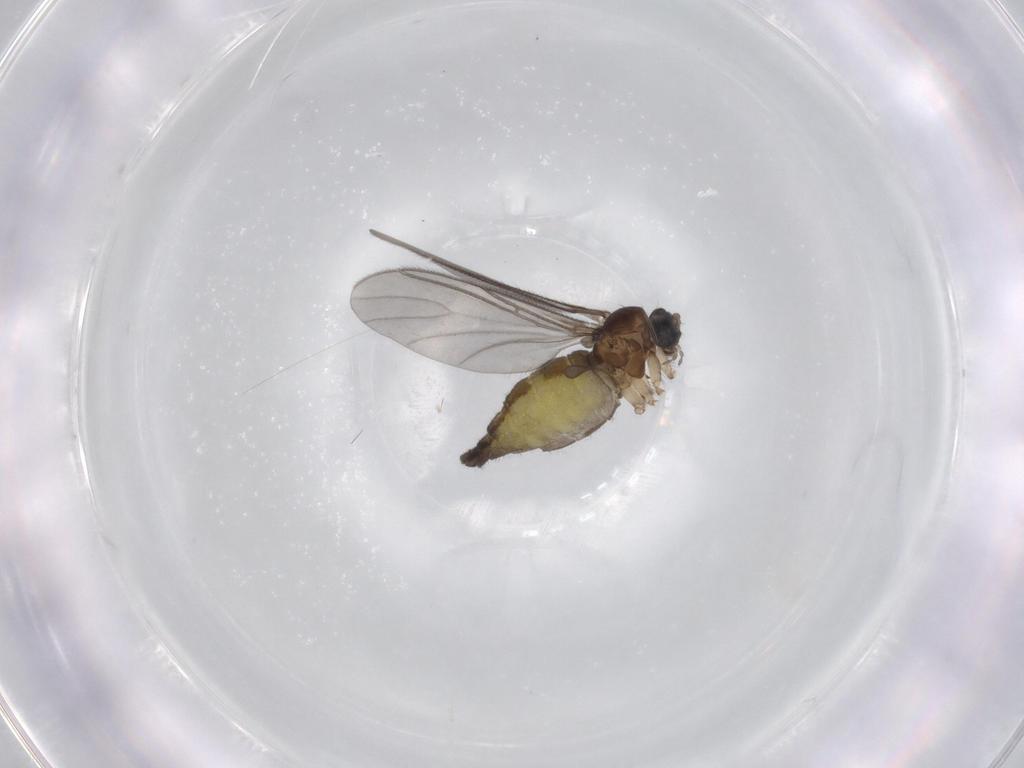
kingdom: Animalia
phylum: Arthropoda
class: Insecta
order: Diptera
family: Sciaridae
